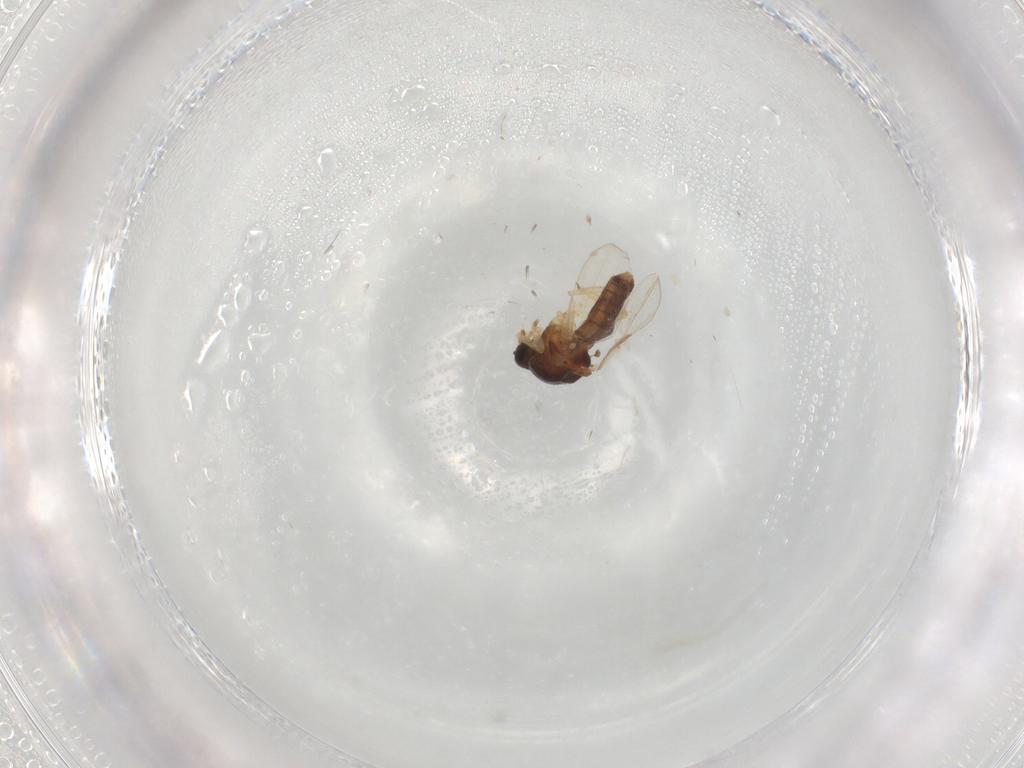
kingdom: Animalia
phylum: Arthropoda
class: Insecta
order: Diptera
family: Ceratopogonidae
